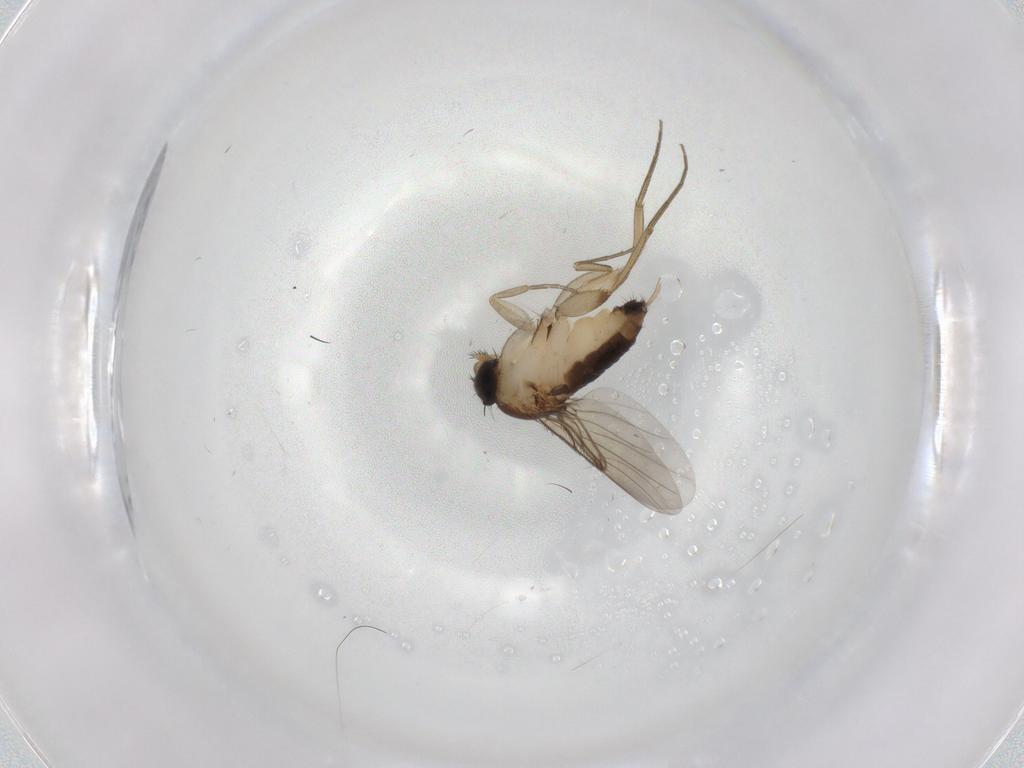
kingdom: Animalia
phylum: Arthropoda
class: Insecta
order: Diptera
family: Phoridae
